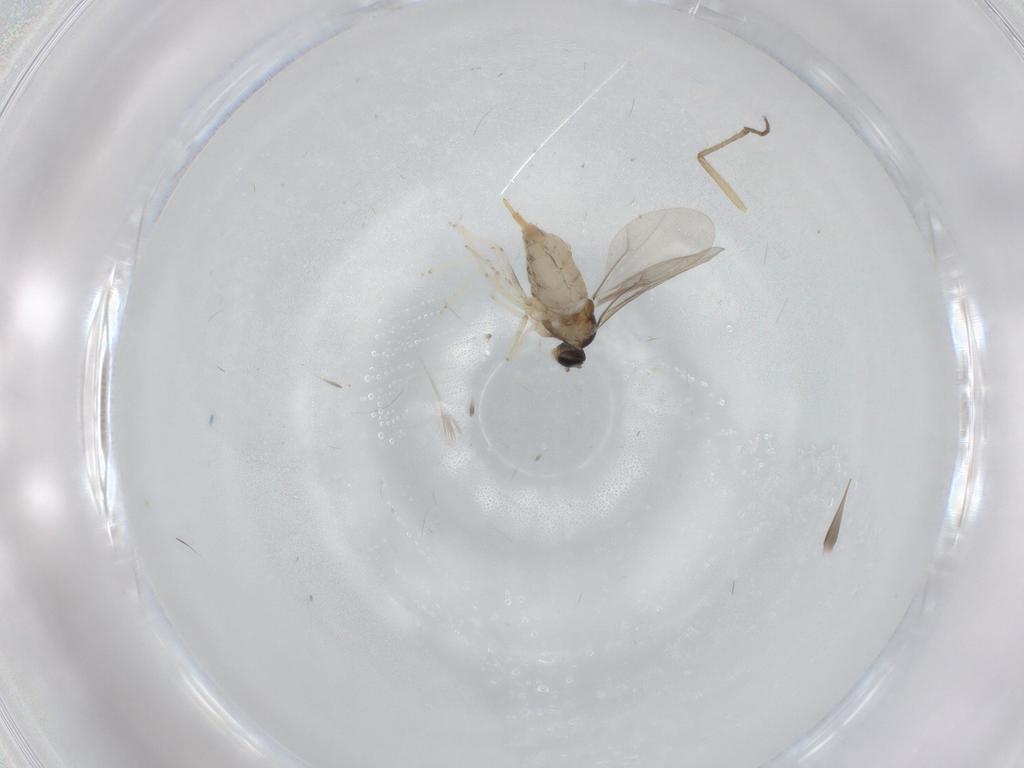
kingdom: Animalia
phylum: Arthropoda
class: Insecta
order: Diptera
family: Cecidomyiidae
